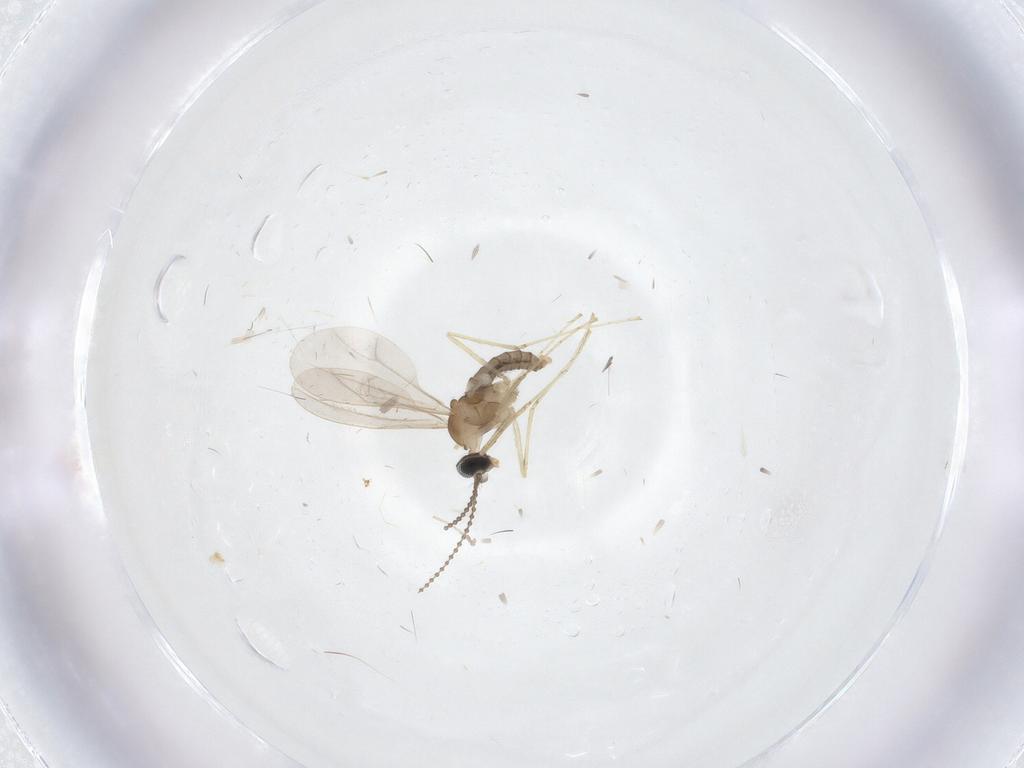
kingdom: Animalia
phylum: Arthropoda
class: Insecta
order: Diptera
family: Cecidomyiidae
